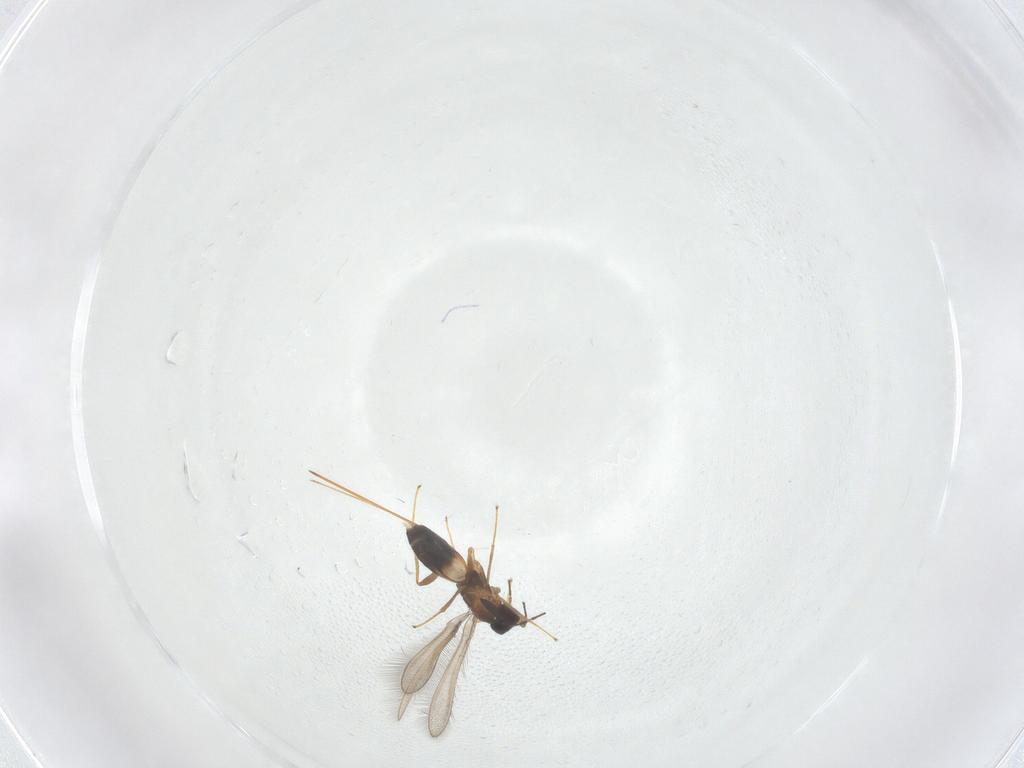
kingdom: Animalia
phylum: Arthropoda
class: Insecta
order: Hymenoptera
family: Mymaridae
